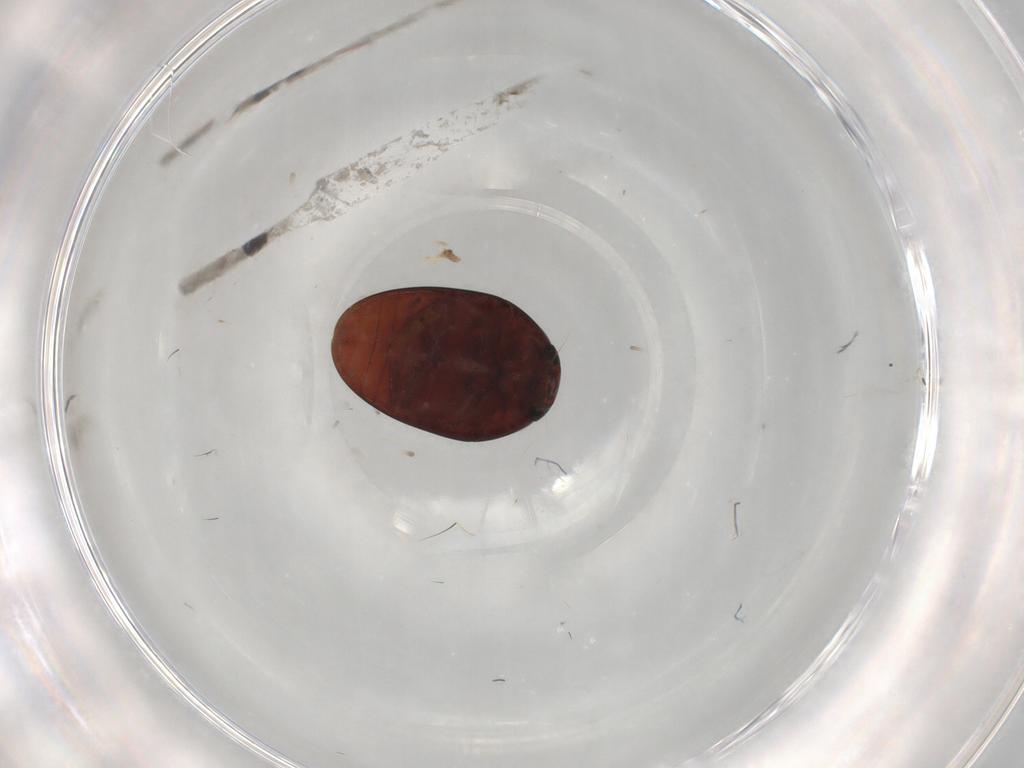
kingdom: Animalia
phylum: Arthropoda
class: Insecta
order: Coleoptera
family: Phalacridae
